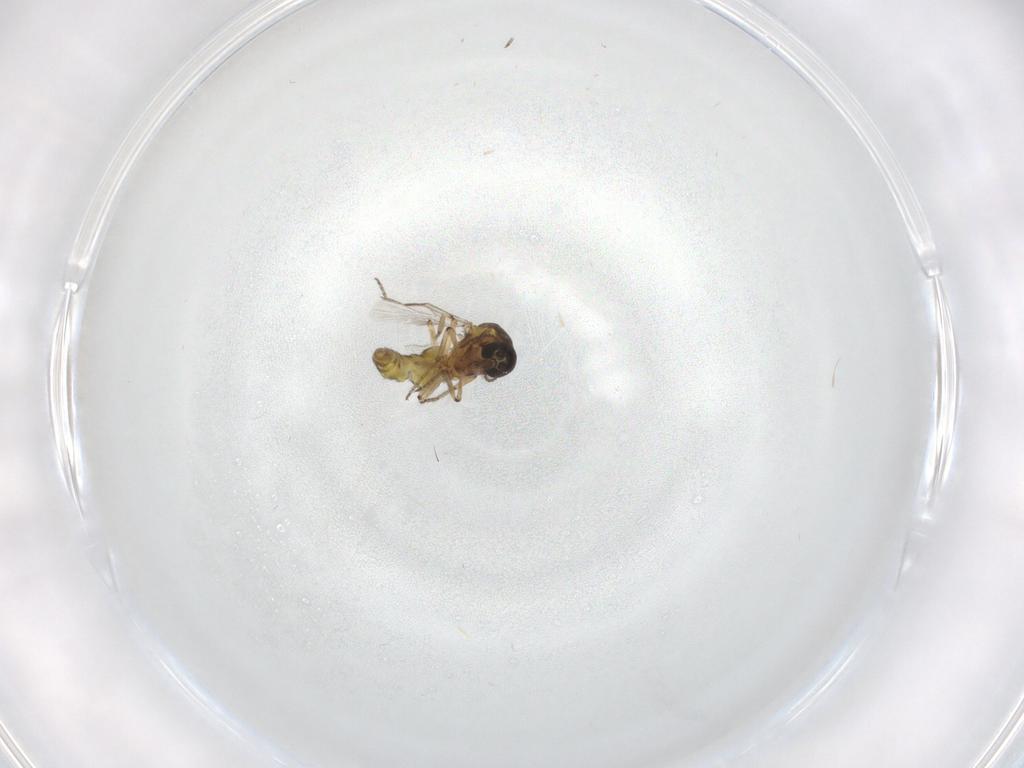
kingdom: Animalia
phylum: Arthropoda
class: Insecta
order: Diptera
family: Ceratopogonidae
